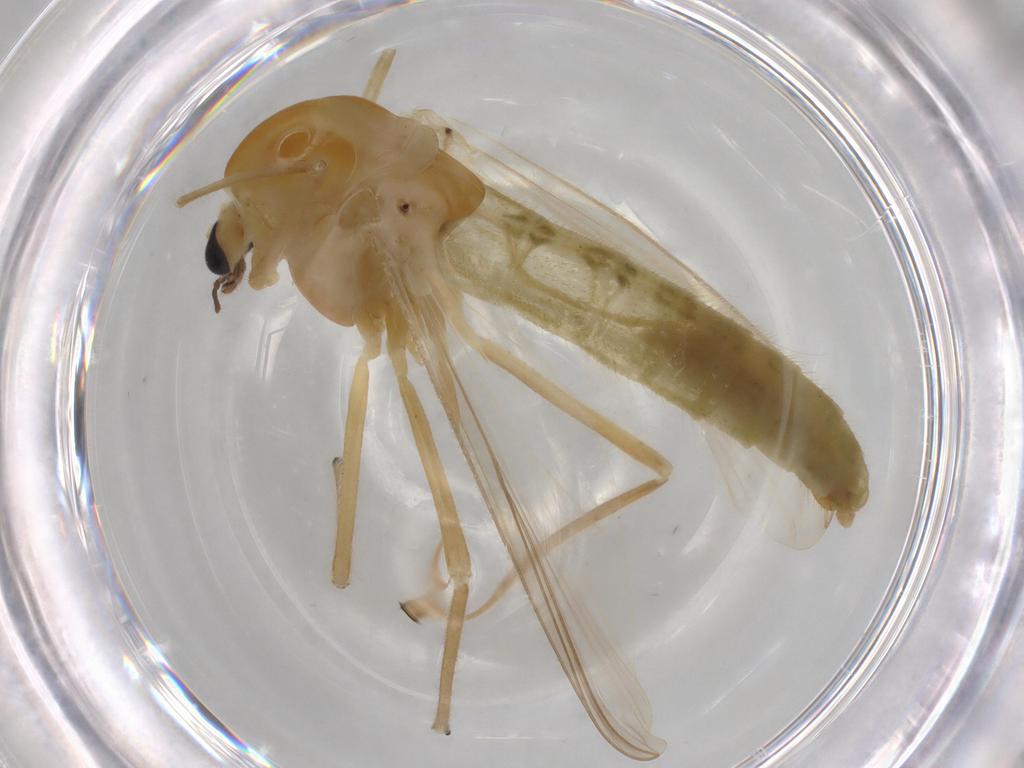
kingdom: Animalia
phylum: Arthropoda
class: Insecta
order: Diptera
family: Chironomidae
